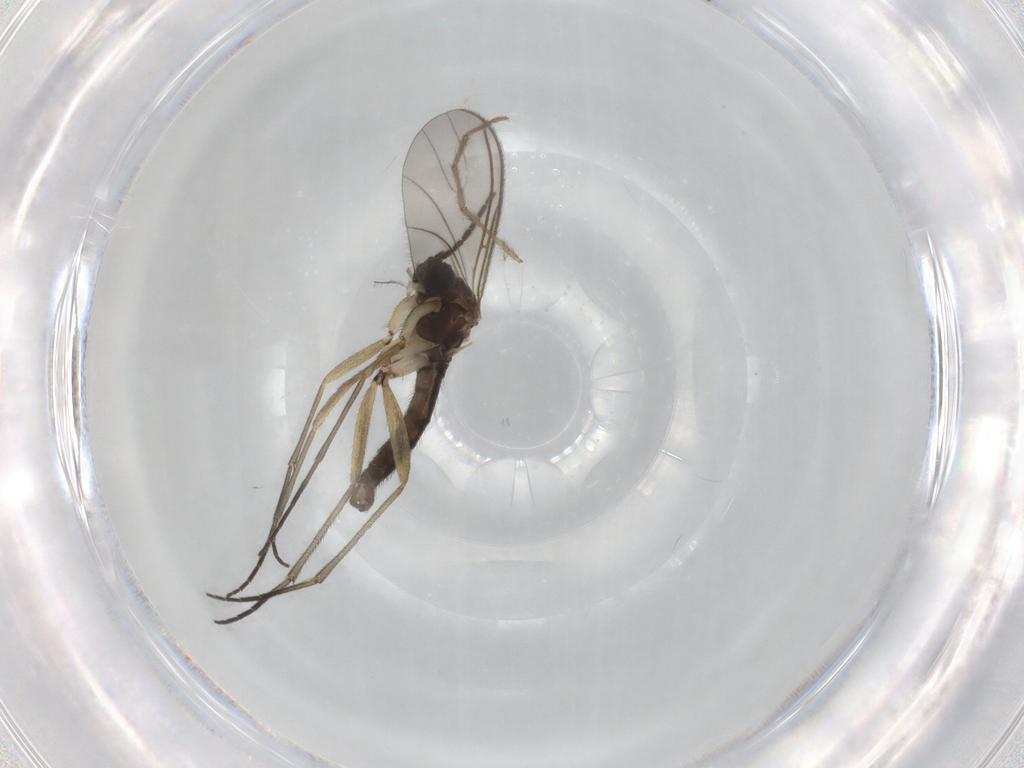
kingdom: Animalia
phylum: Arthropoda
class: Insecta
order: Diptera
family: Sciaridae
